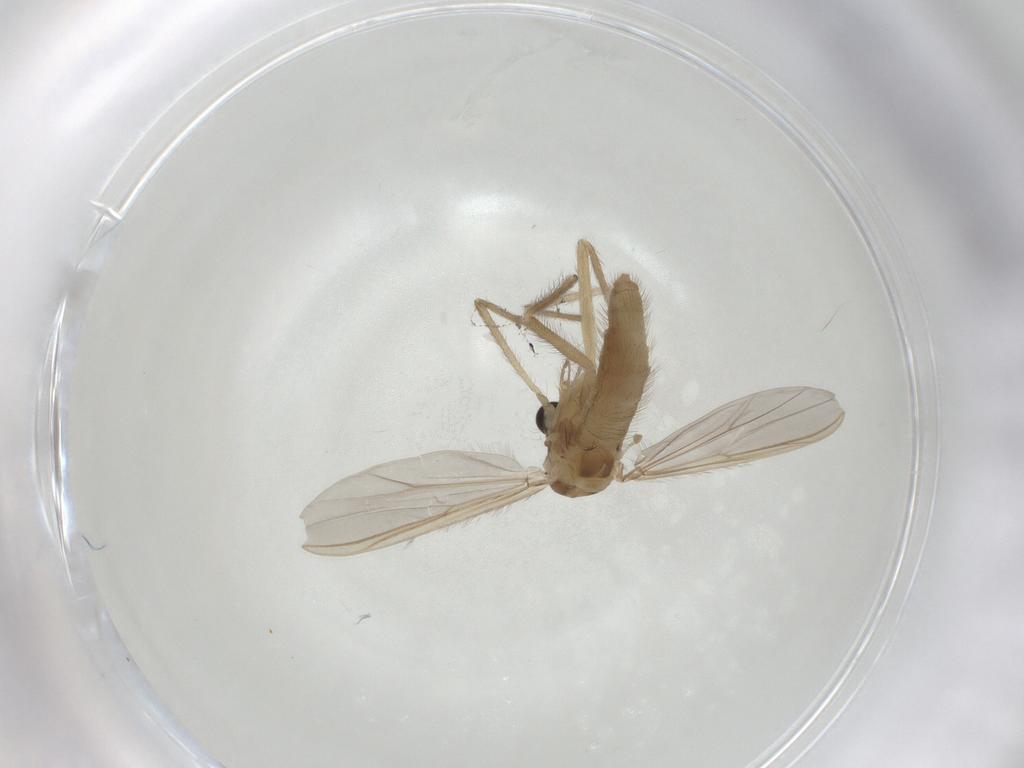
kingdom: Animalia
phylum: Arthropoda
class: Insecta
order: Diptera
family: Chironomidae
